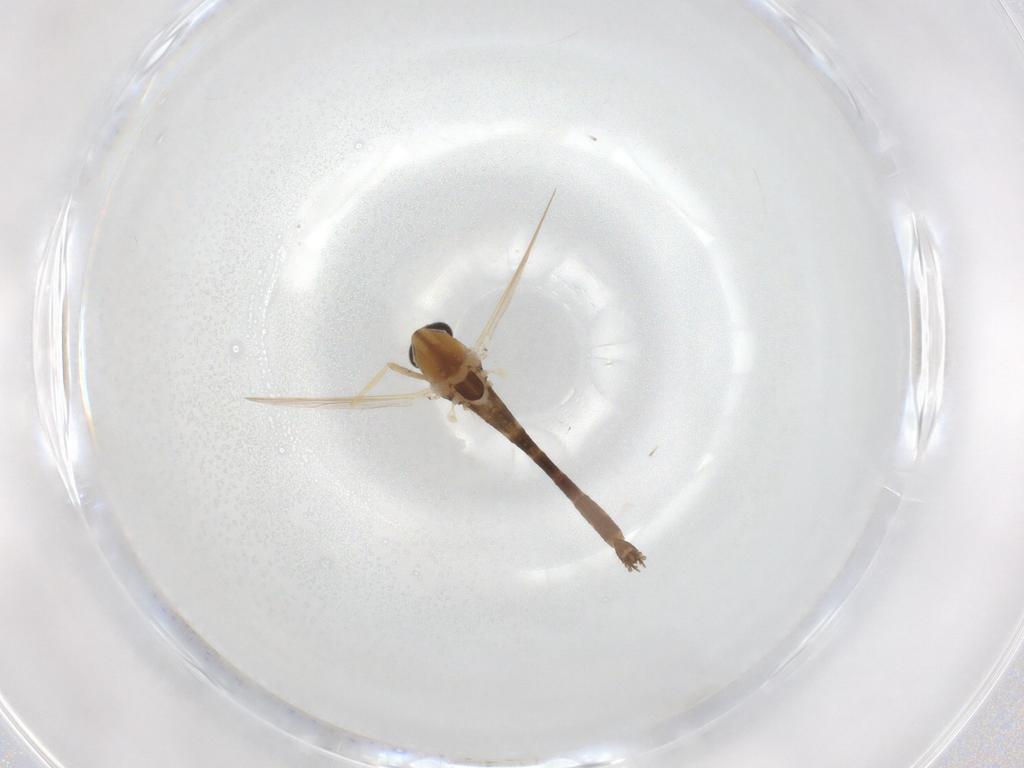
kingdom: Animalia
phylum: Arthropoda
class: Insecta
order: Diptera
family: Chironomidae
